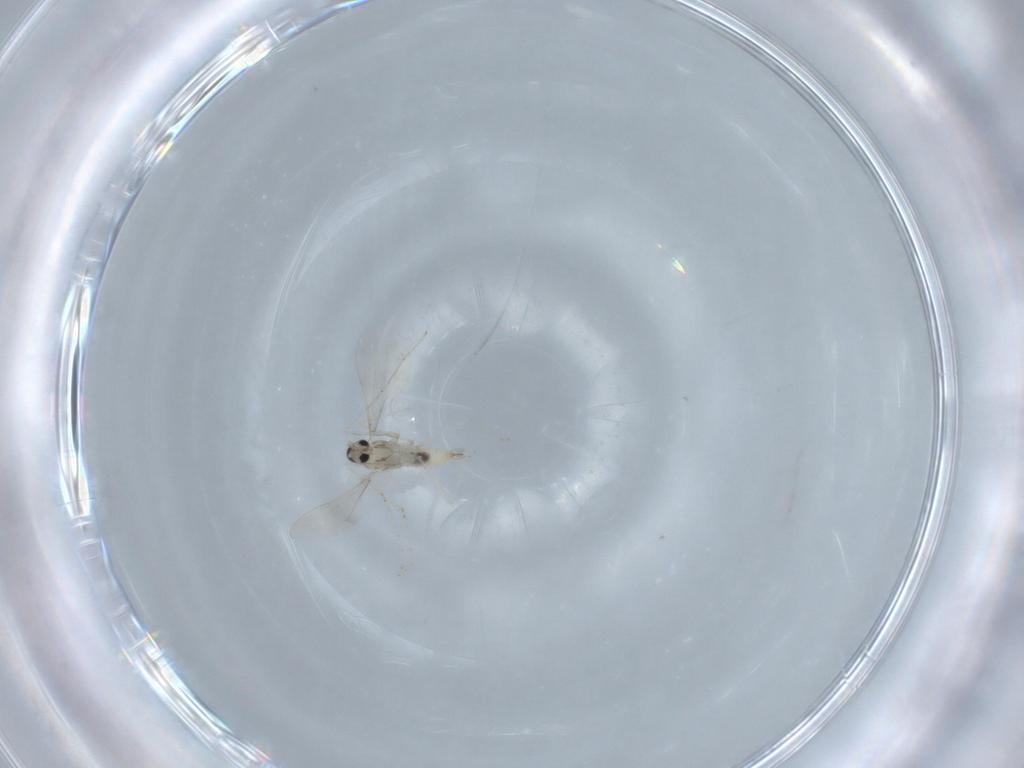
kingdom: Animalia
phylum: Arthropoda
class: Insecta
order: Diptera
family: Cecidomyiidae
